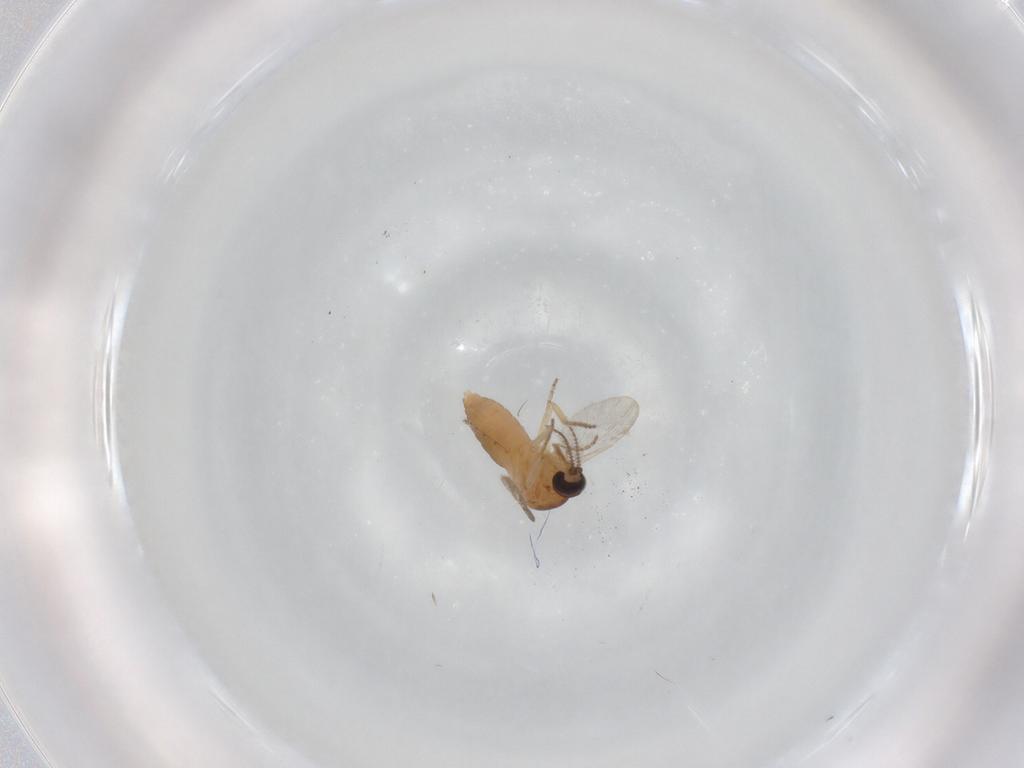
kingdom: Animalia
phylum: Arthropoda
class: Insecta
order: Diptera
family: Ceratopogonidae
